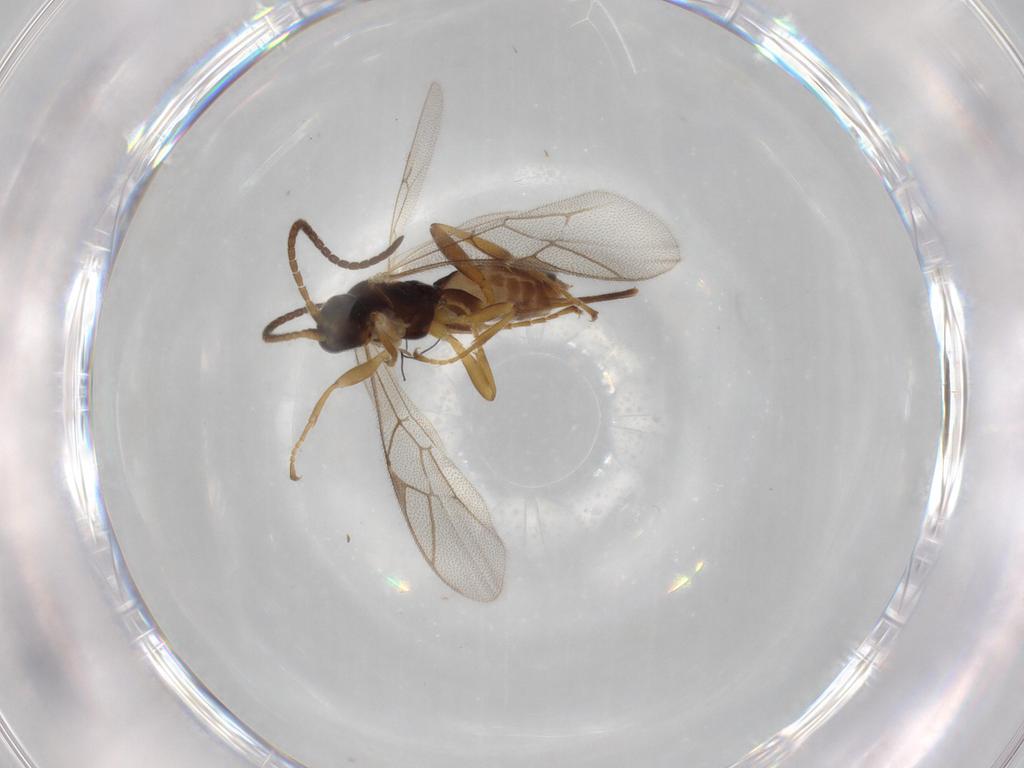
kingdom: Animalia
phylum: Arthropoda
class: Insecta
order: Hymenoptera
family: Ichneumonidae
